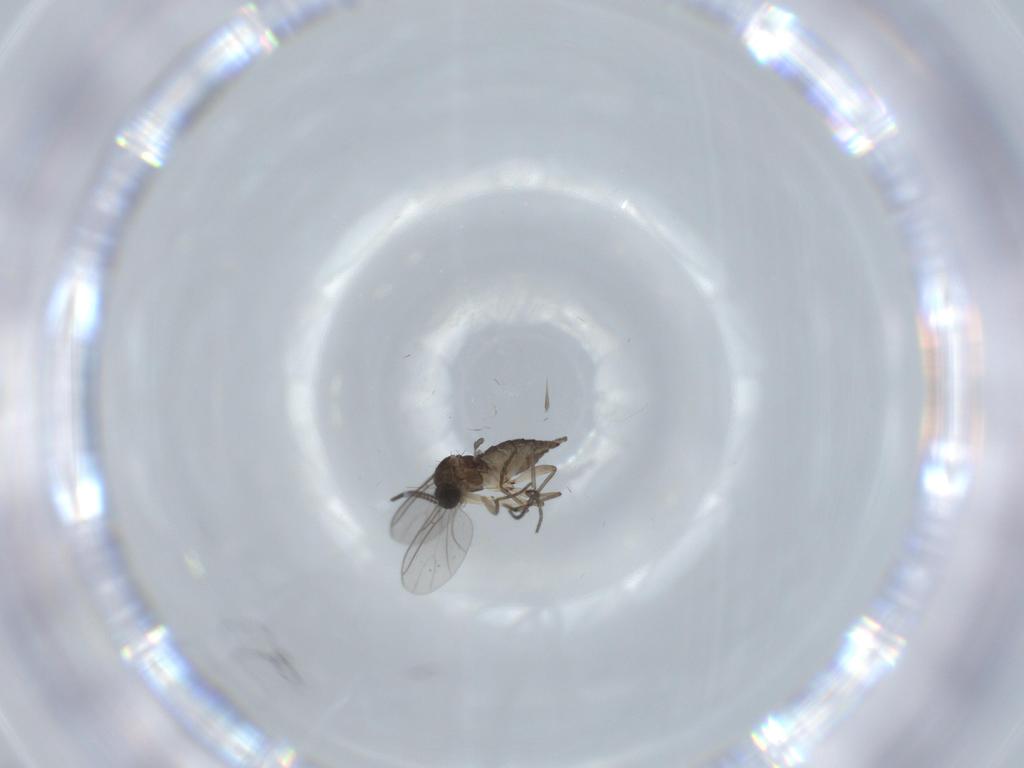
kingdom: Animalia
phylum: Arthropoda
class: Insecta
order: Diptera
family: Sciaridae
